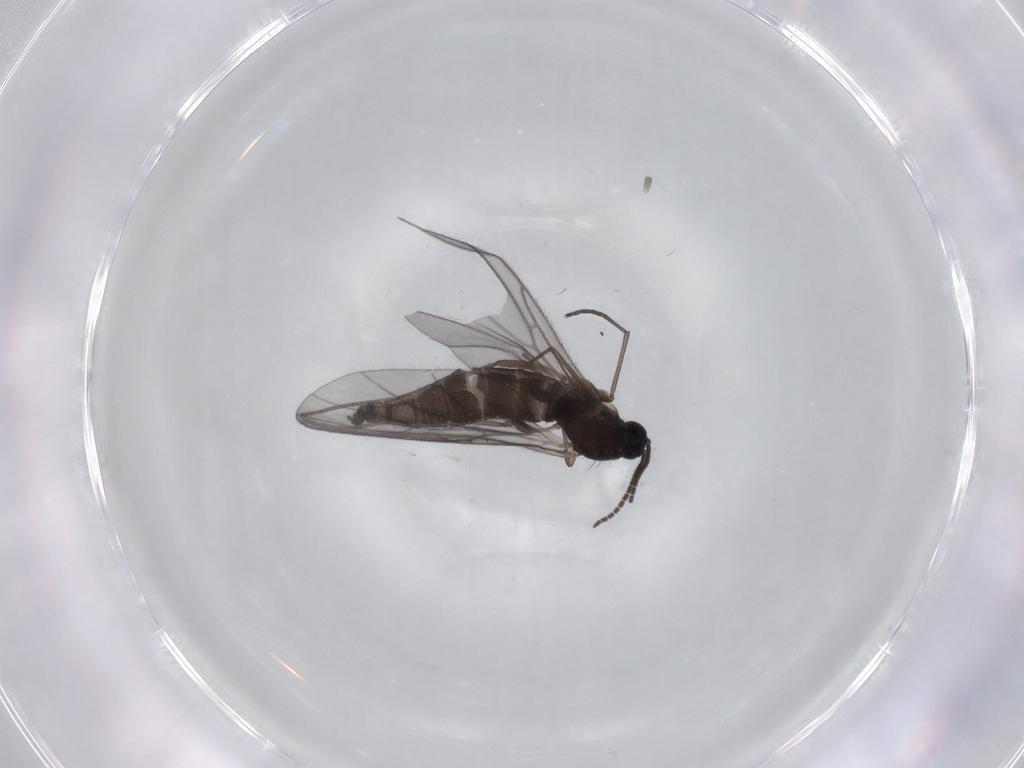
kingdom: Animalia
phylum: Arthropoda
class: Insecta
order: Diptera
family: Sciaridae
